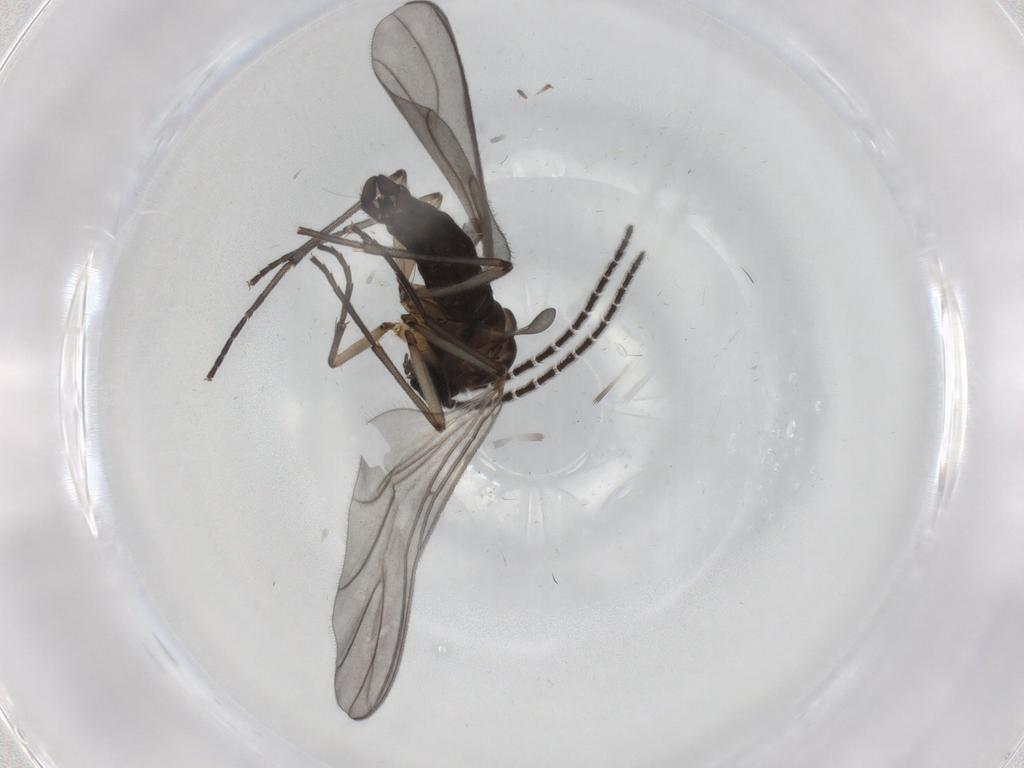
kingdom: Animalia
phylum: Arthropoda
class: Insecta
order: Diptera
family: Sciaridae
